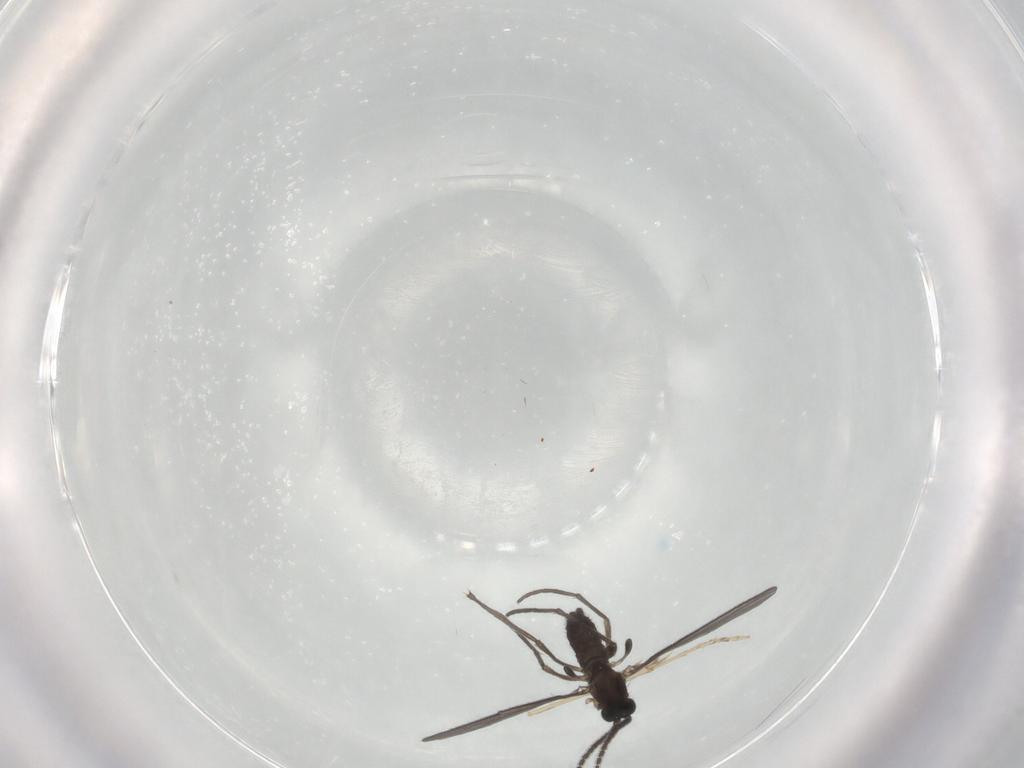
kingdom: Animalia
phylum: Arthropoda
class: Insecta
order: Diptera
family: Sciaridae
